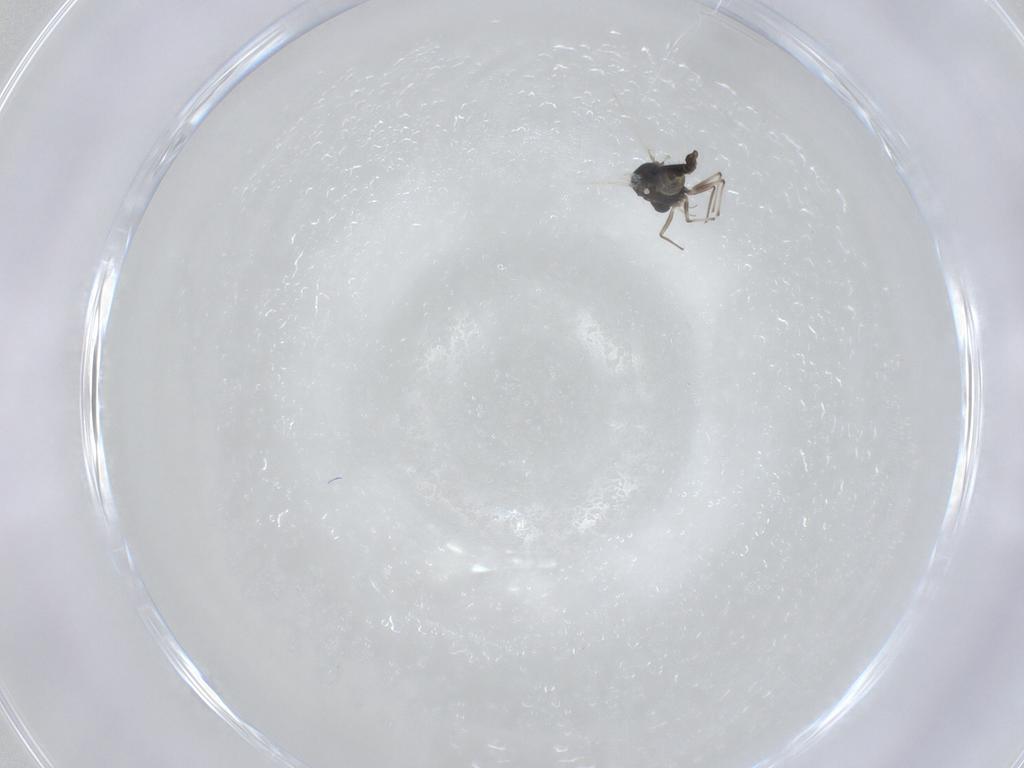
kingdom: Animalia
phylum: Arthropoda
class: Insecta
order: Diptera
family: Chironomidae
